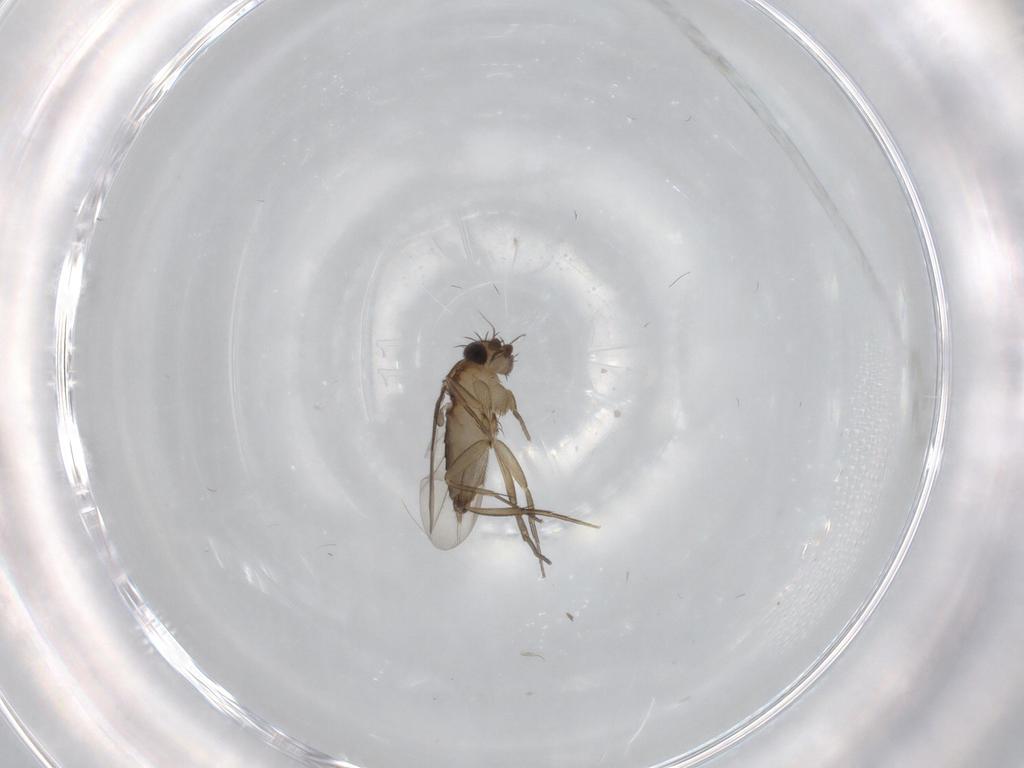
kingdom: Animalia
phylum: Arthropoda
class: Insecta
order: Diptera
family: Phoridae
